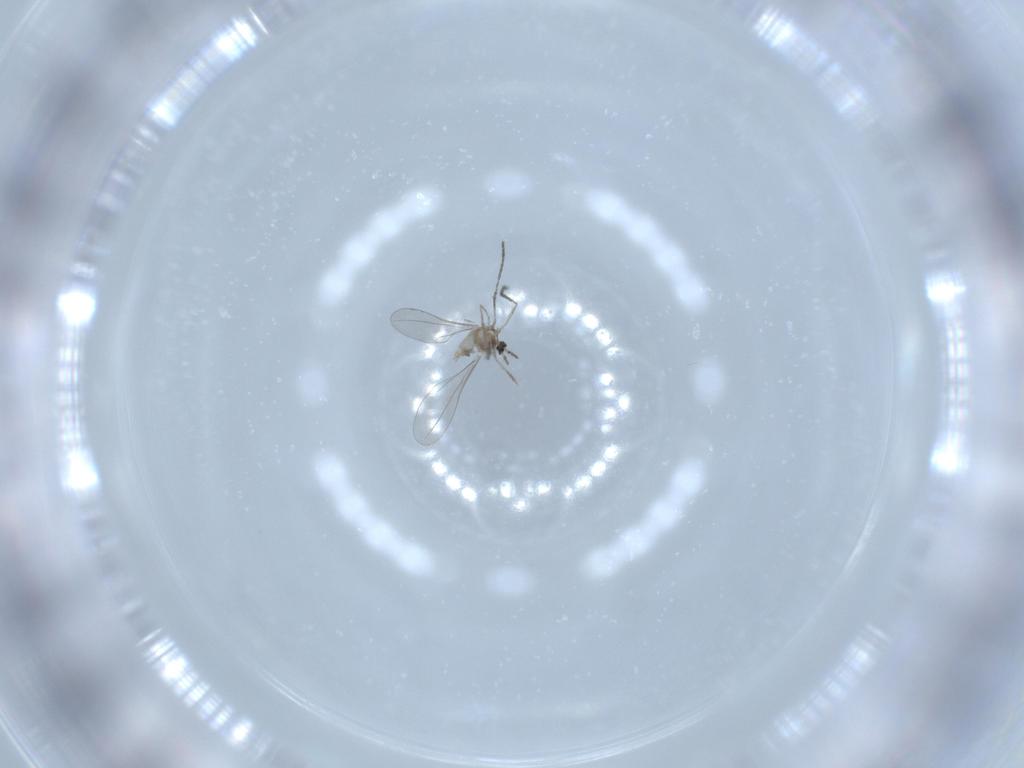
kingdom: Animalia
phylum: Arthropoda
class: Insecta
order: Diptera
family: Cecidomyiidae
